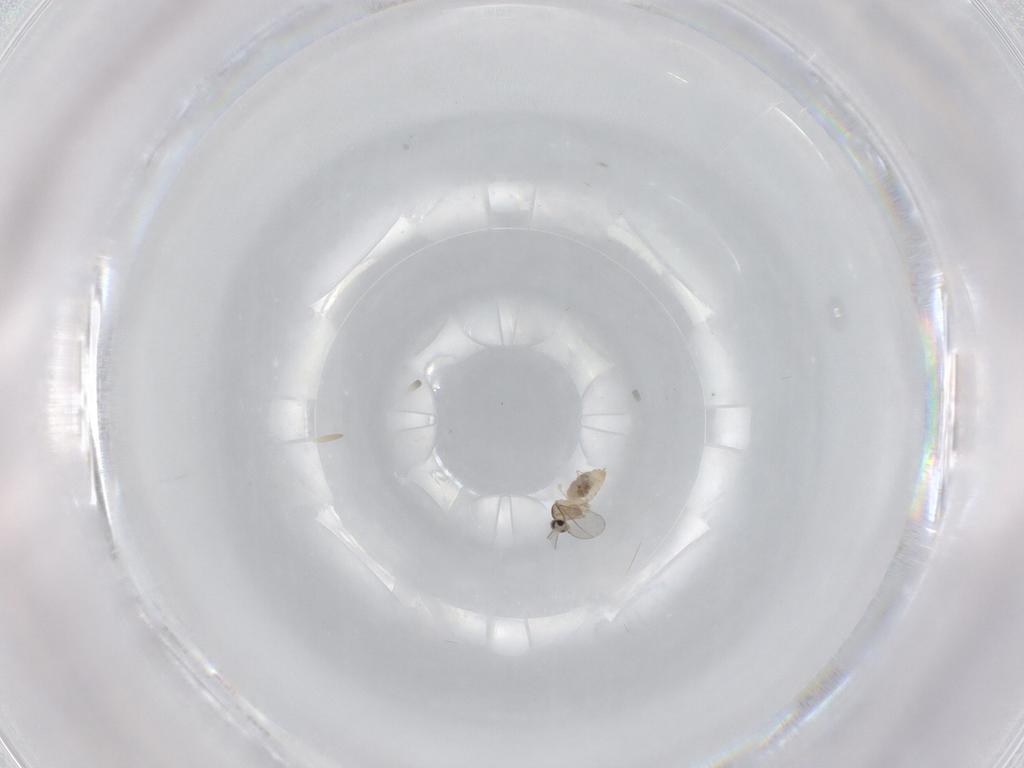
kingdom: Animalia
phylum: Arthropoda
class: Insecta
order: Diptera
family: Cecidomyiidae
